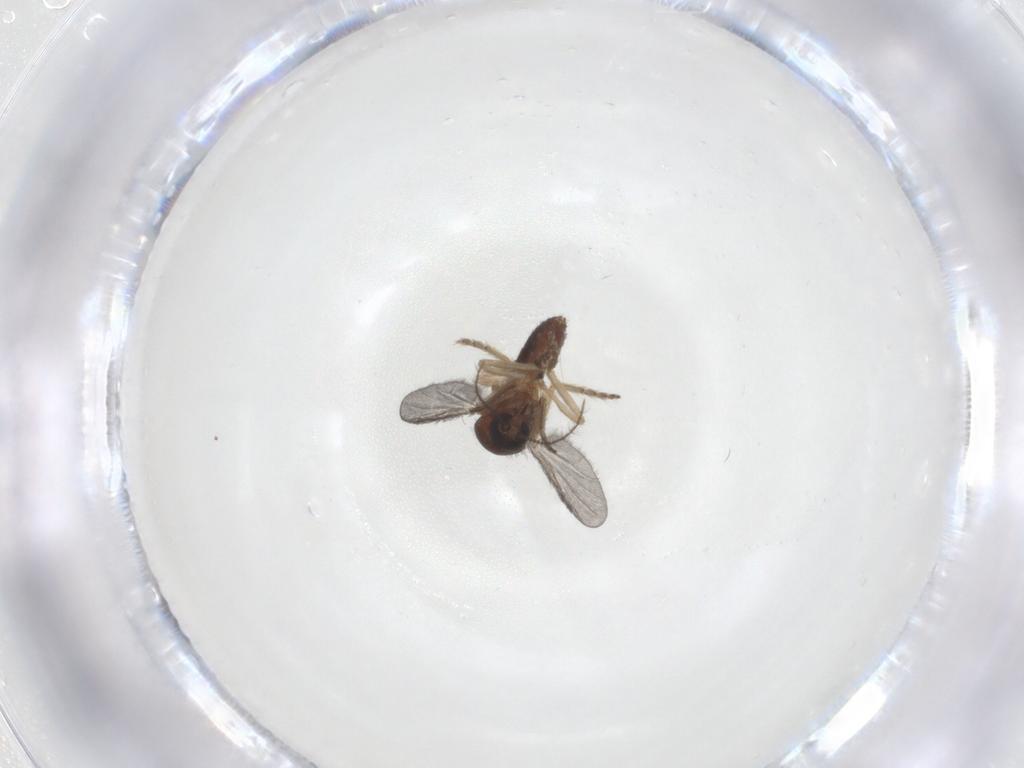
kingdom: Animalia
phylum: Arthropoda
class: Insecta
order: Diptera
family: Ceratopogonidae
